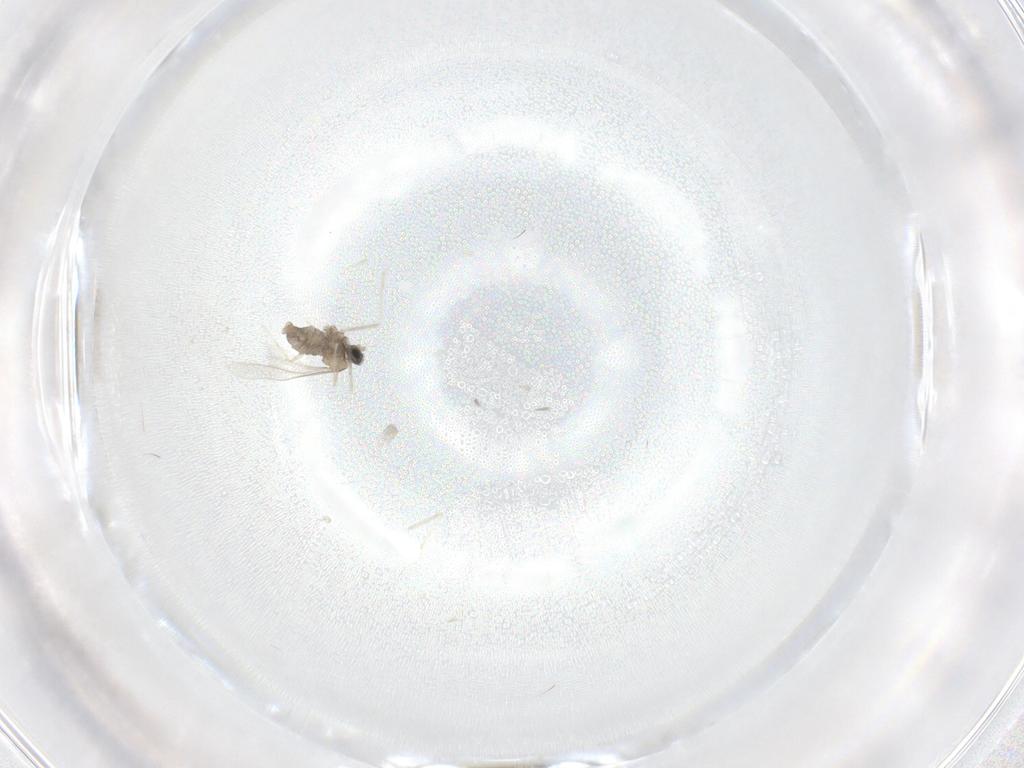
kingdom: Animalia
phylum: Arthropoda
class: Insecta
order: Diptera
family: Cecidomyiidae
